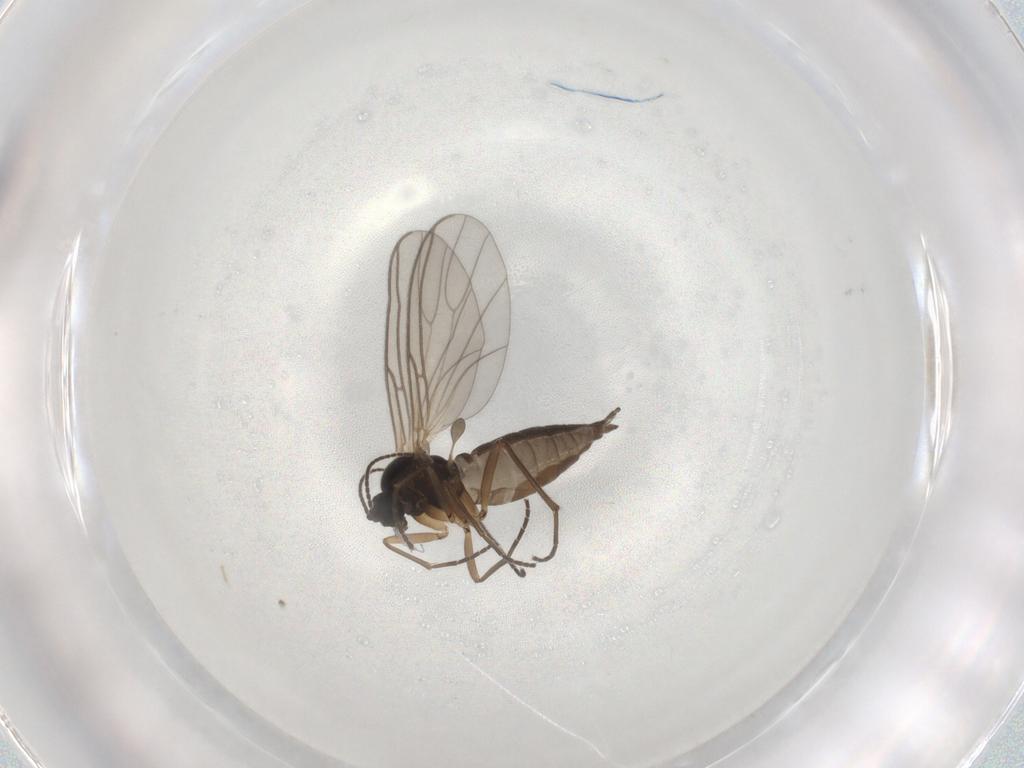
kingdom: Animalia
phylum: Arthropoda
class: Insecta
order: Diptera
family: Sciaridae
